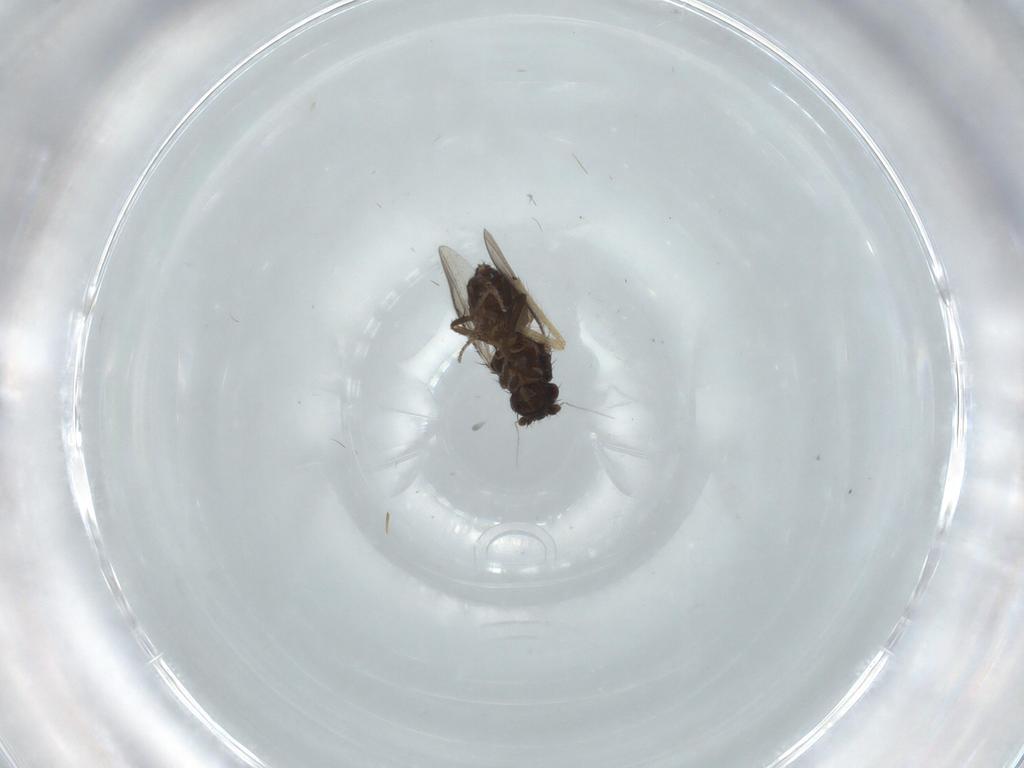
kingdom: Animalia
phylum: Arthropoda
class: Insecta
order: Diptera
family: Sphaeroceridae
